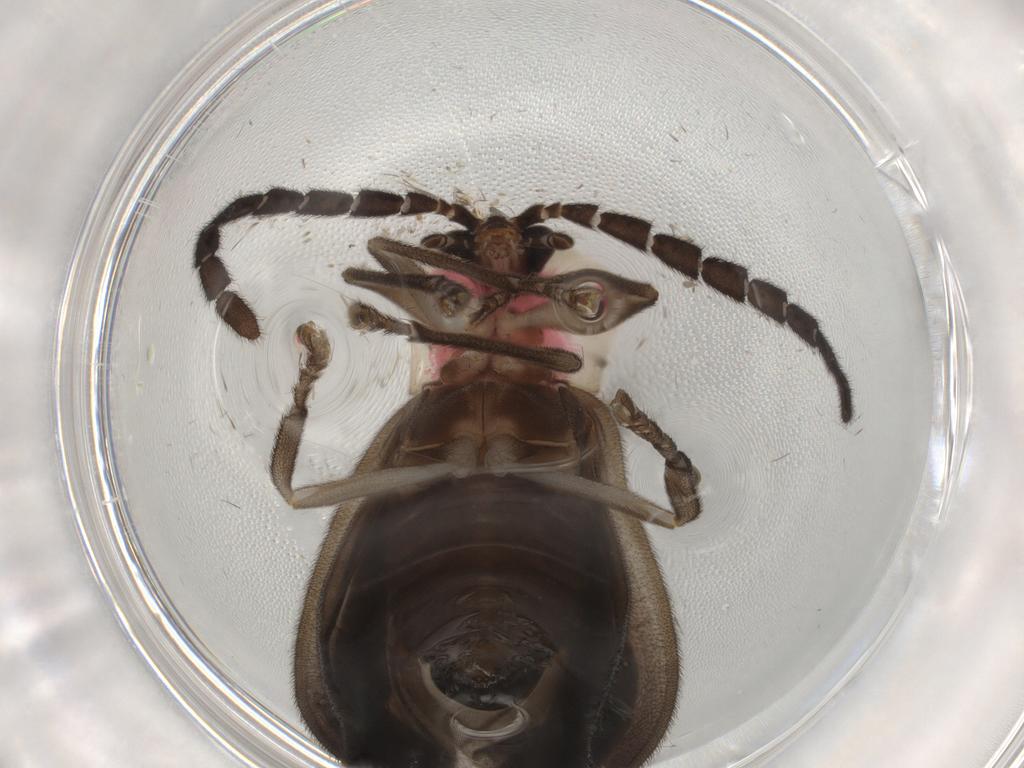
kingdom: Animalia
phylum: Arthropoda
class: Insecta
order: Coleoptera
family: Lampyridae
